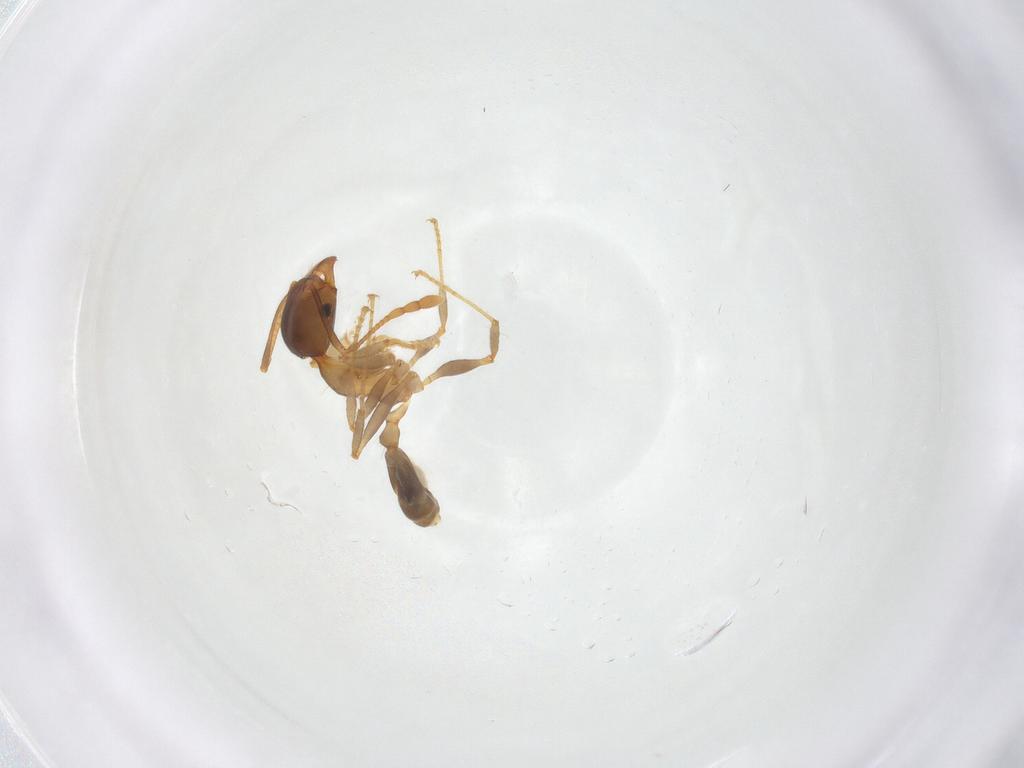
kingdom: Animalia
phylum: Arthropoda
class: Insecta
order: Hymenoptera
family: Formicidae
